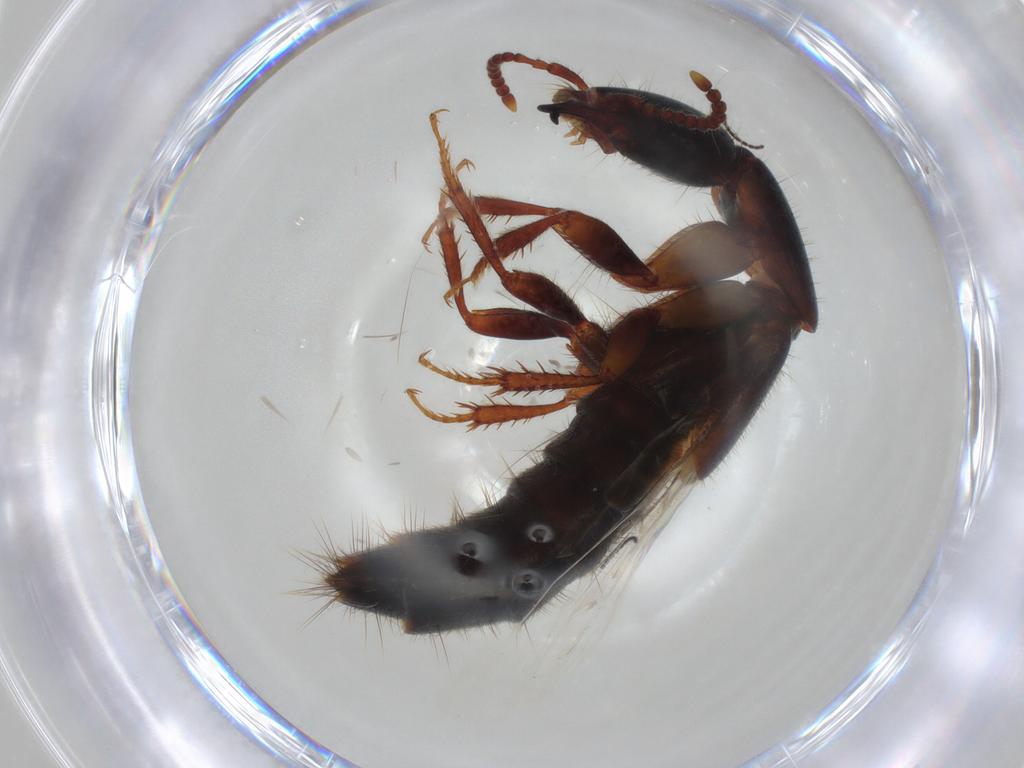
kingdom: Animalia
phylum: Arthropoda
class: Insecta
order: Coleoptera
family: Staphylinidae
